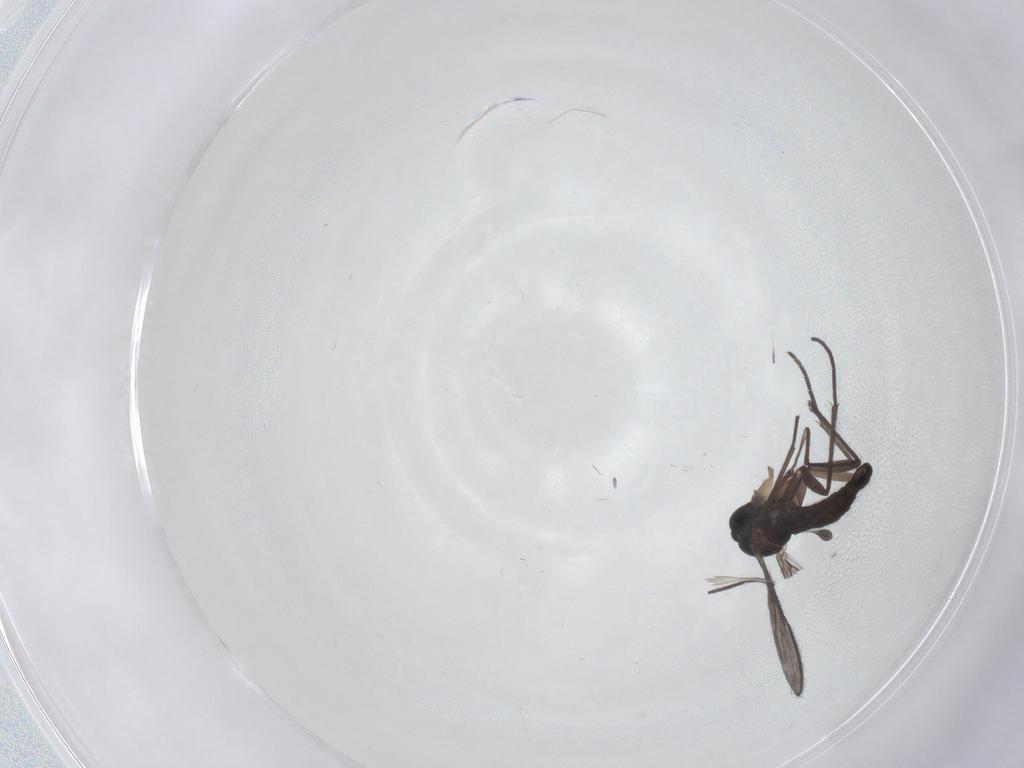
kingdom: Animalia
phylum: Arthropoda
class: Insecta
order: Diptera
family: Sciaridae
